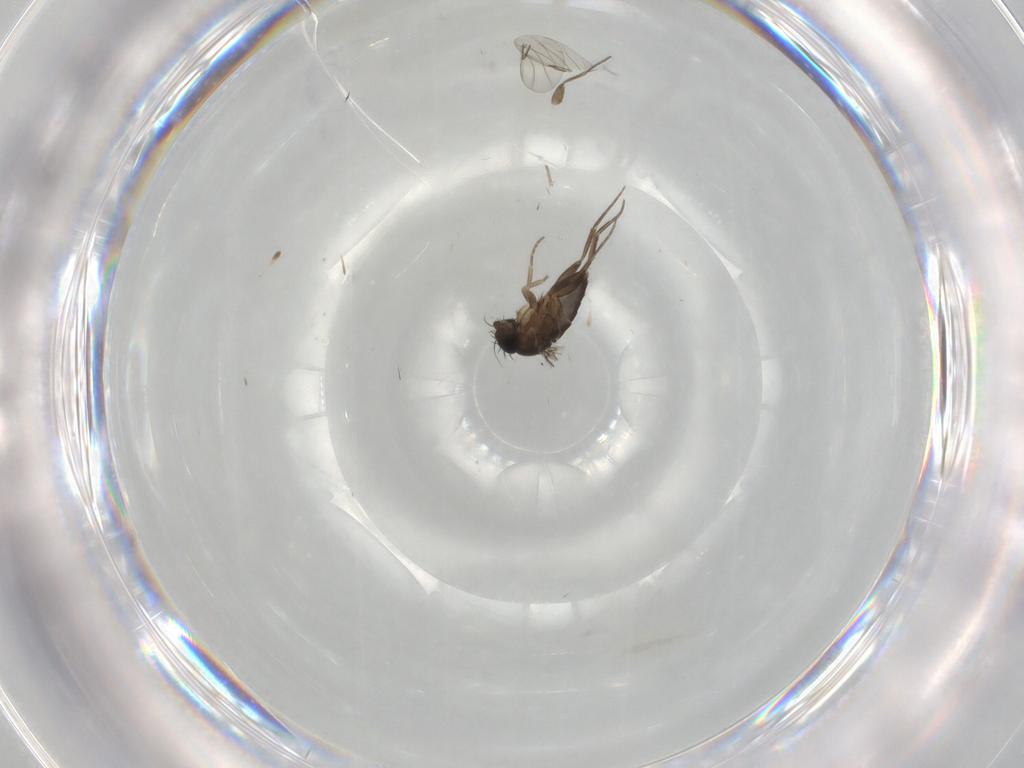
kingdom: Animalia
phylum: Arthropoda
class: Insecta
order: Diptera
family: Phoridae
